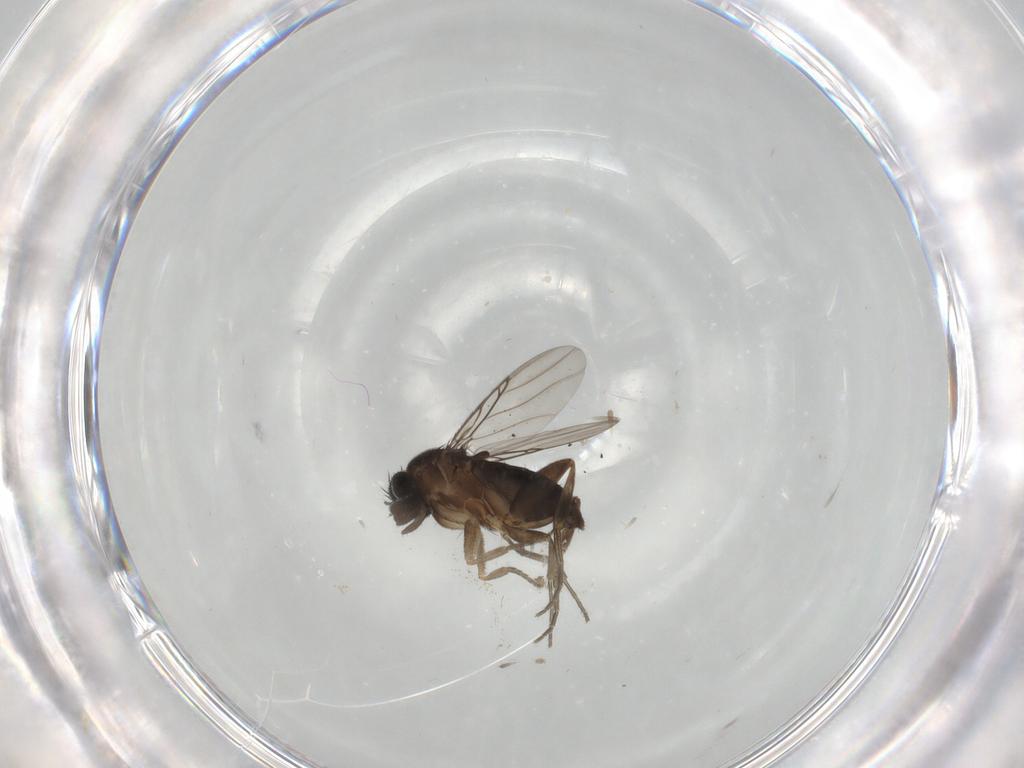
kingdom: Animalia
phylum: Arthropoda
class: Insecta
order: Diptera
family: Phoridae
